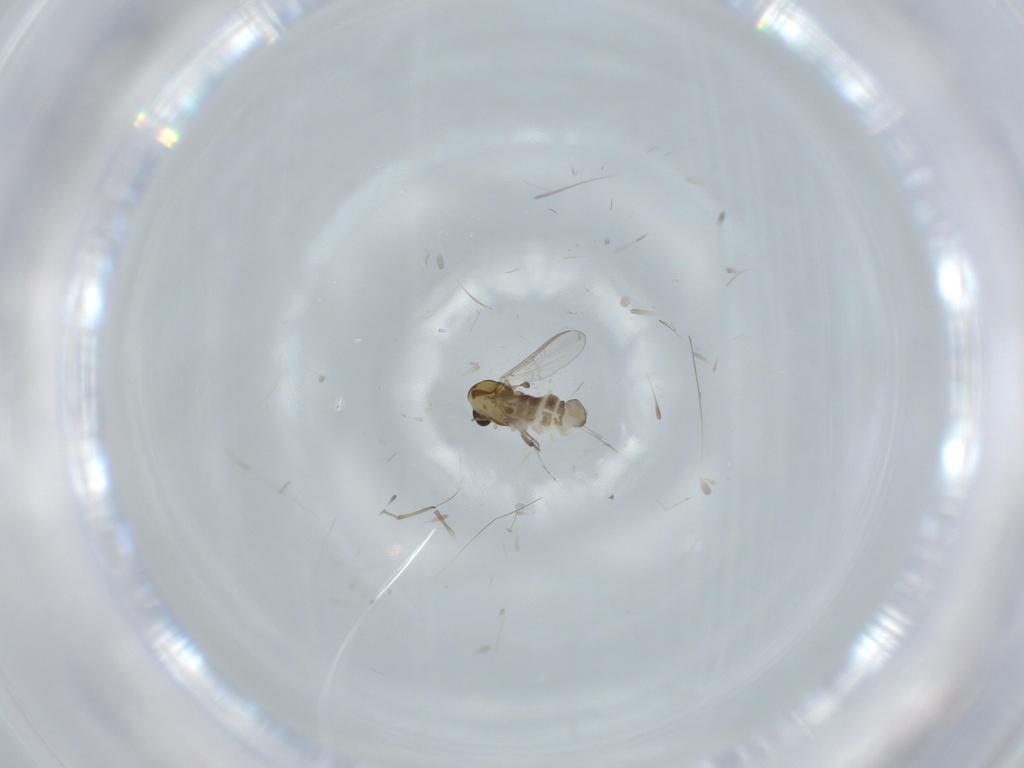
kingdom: Animalia
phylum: Arthropoda
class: Insecta
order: Diptera
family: Chironomidae
